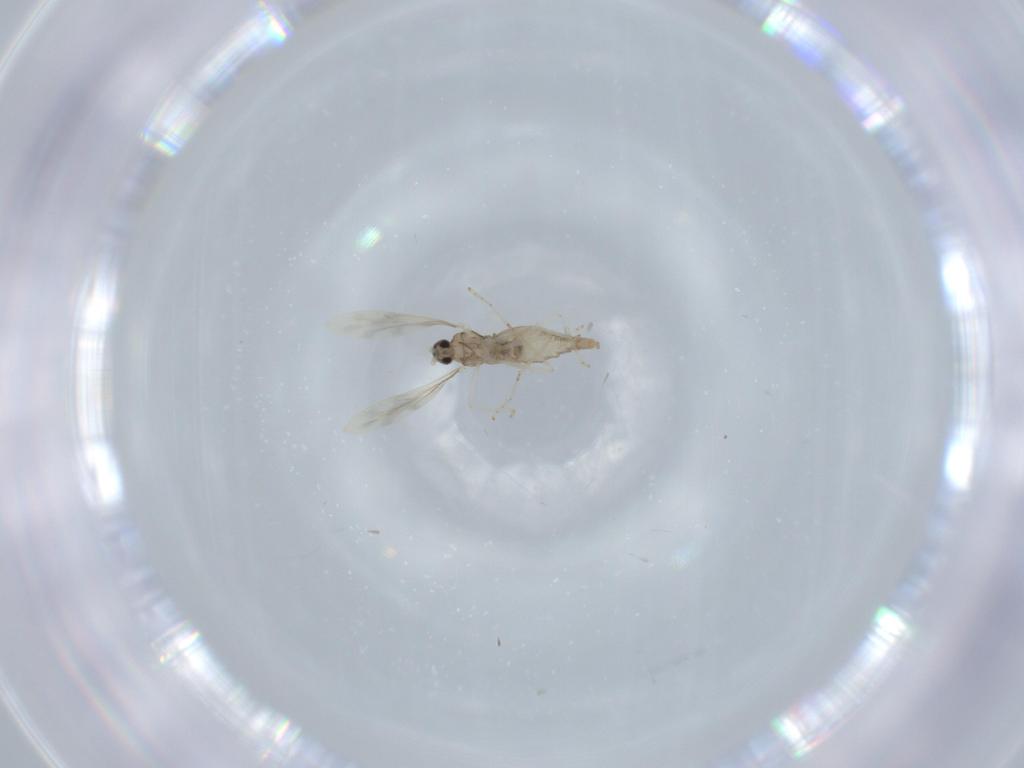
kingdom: Animalia
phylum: Arthropoda
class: Insecta
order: Diptera
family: Cecidomyiidae
